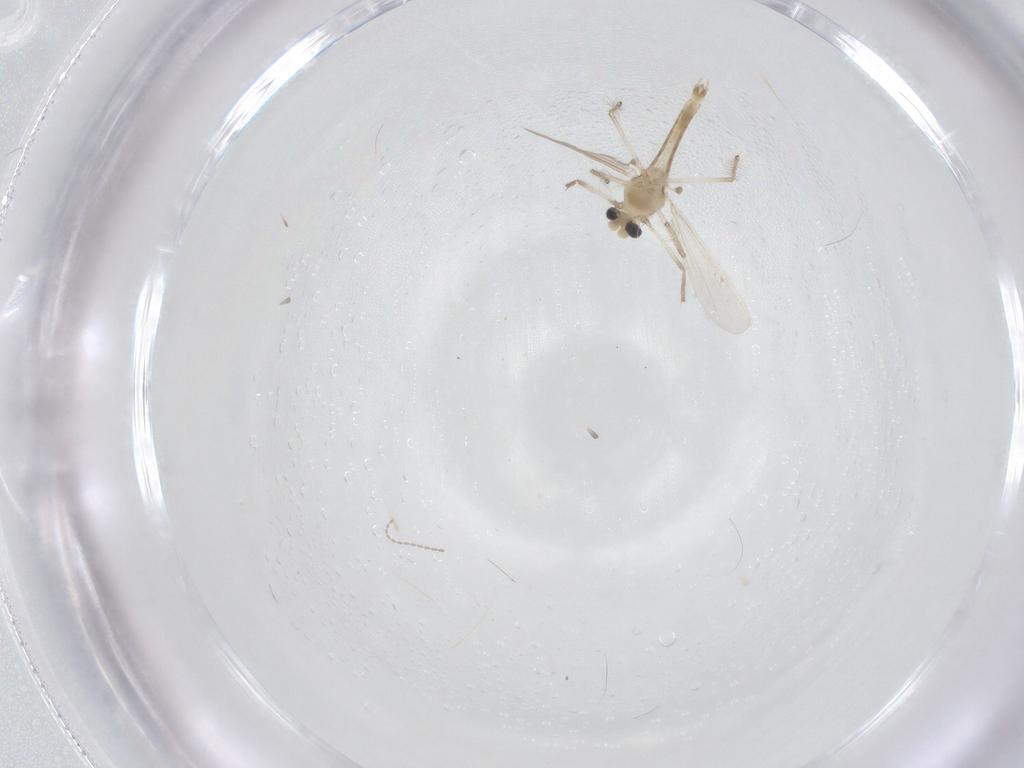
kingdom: Animalia
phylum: Arthropoda
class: Insecta
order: Diptera
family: Chironomidae
